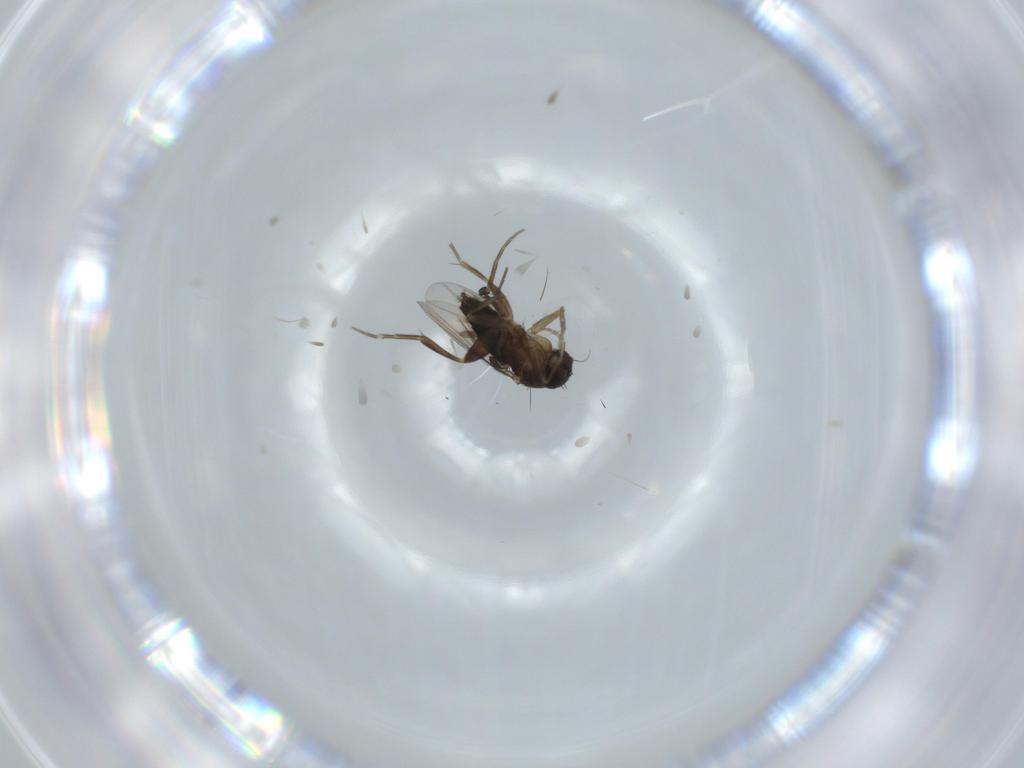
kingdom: Animalia
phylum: Arthropoda
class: Insecta
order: Diptera
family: Phoridae
